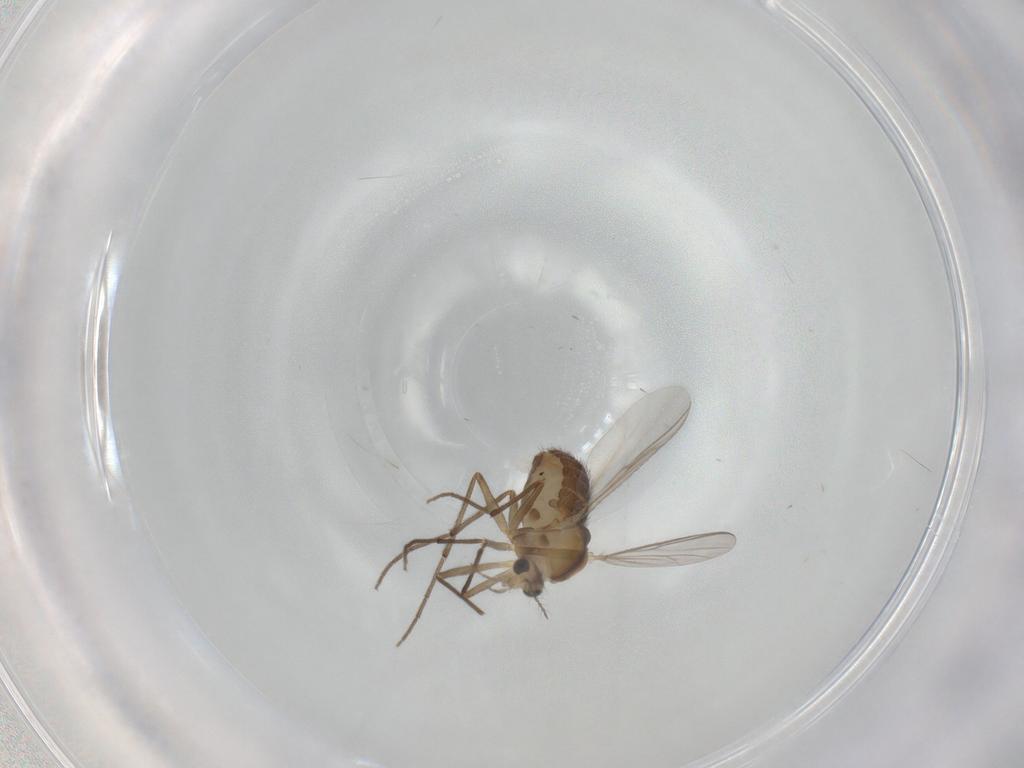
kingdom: Animalia
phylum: Arthropoda
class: Insecta
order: Diptera
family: Chironomidae
